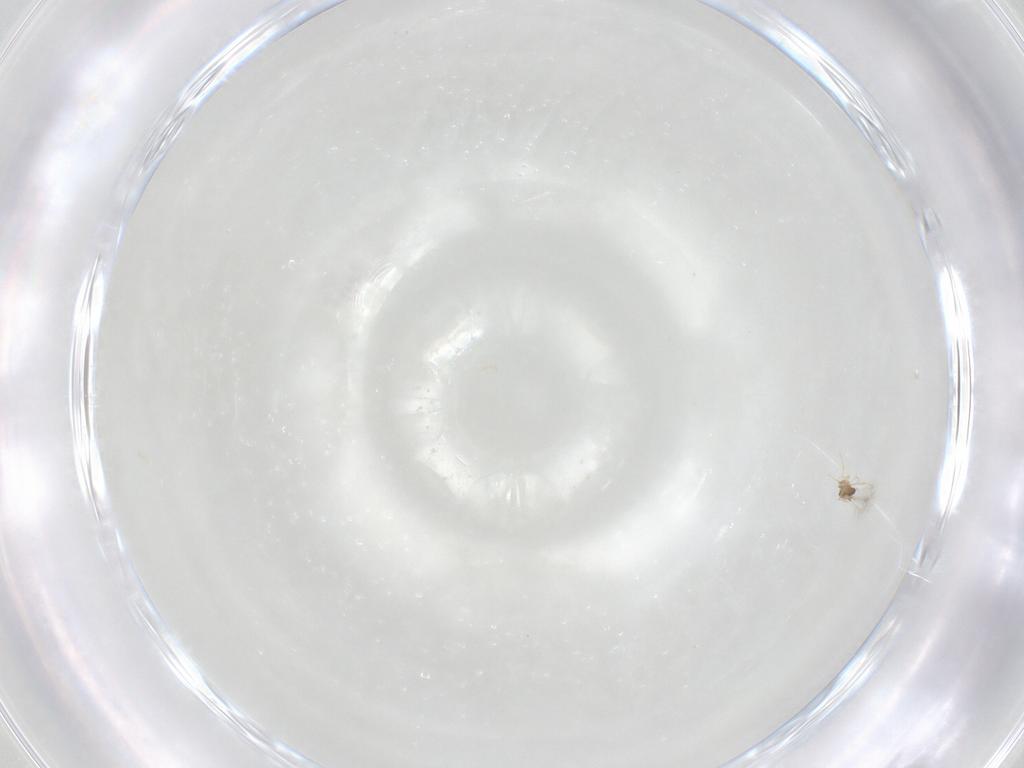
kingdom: Animalia
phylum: Arthropoda
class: Insecta
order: Hymenoptera
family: Mymaridae
